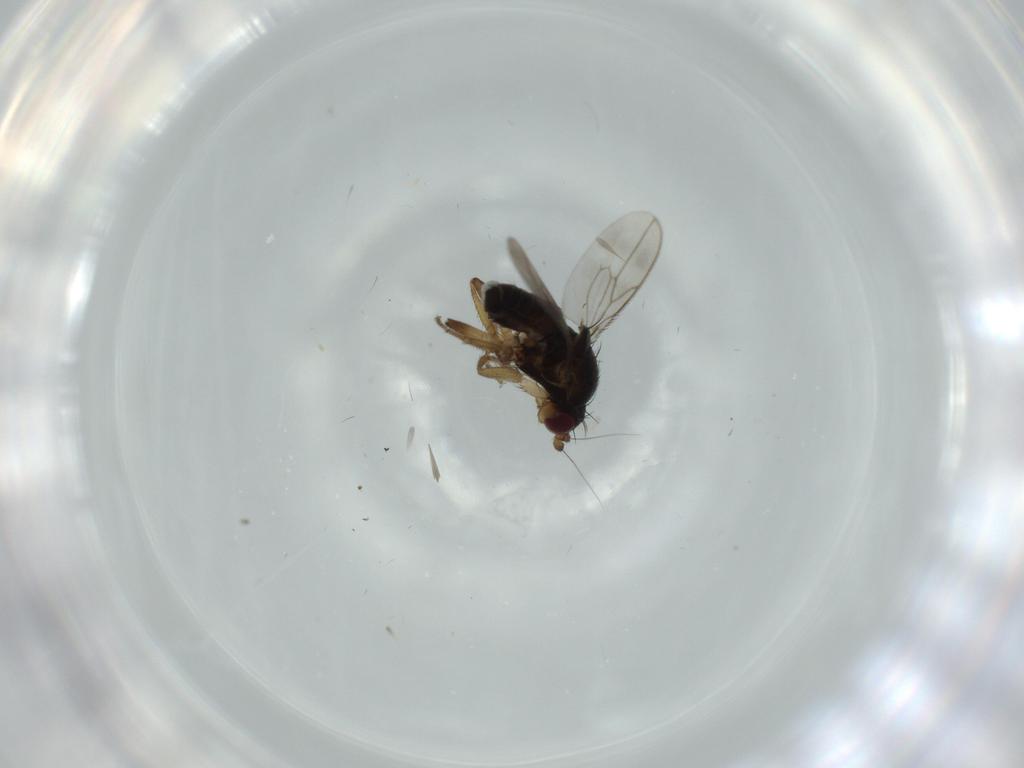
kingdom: Animalia
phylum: Arthropoda
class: Insecta
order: Diptera
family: Sphaeroceridae
